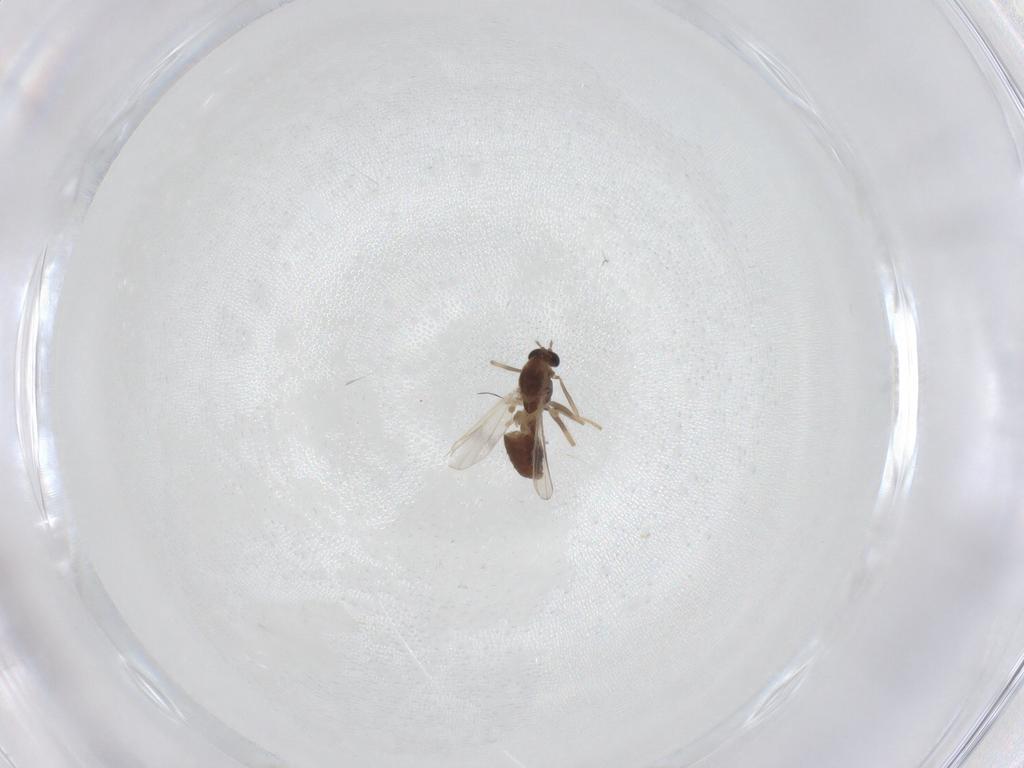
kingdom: Animalia
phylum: Arthropoda
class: Insecta
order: Diptera
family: Chironomidae
